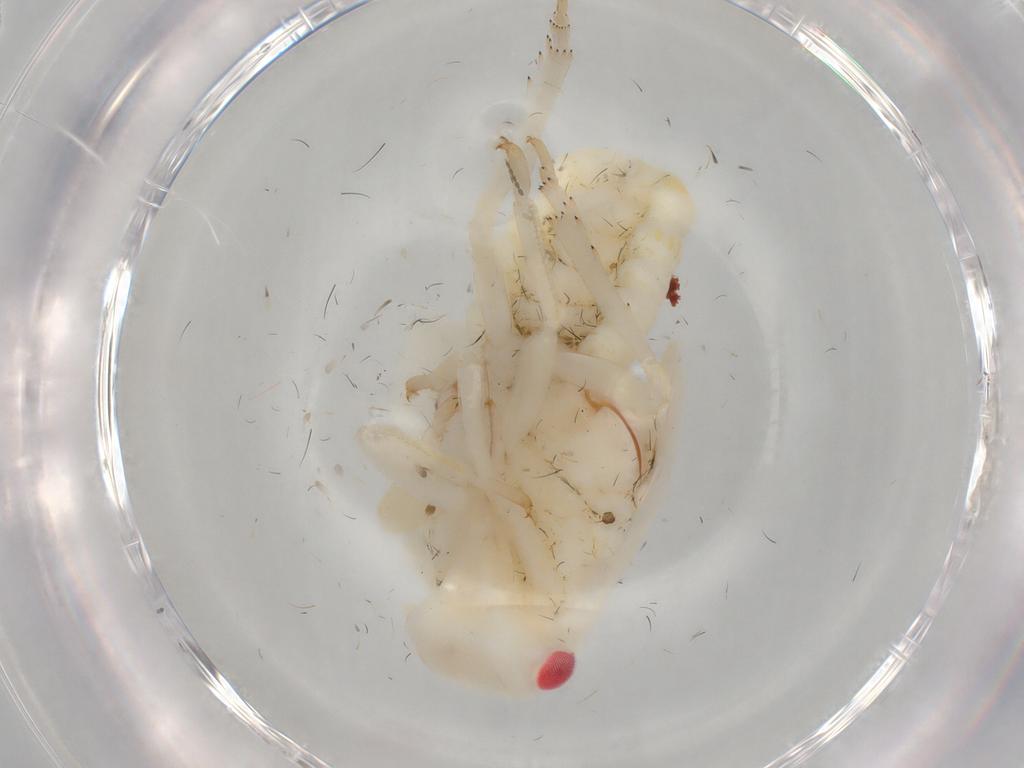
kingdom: Animalia
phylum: Arthropoda
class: Insecta
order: Hemiptera
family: Flatidae
